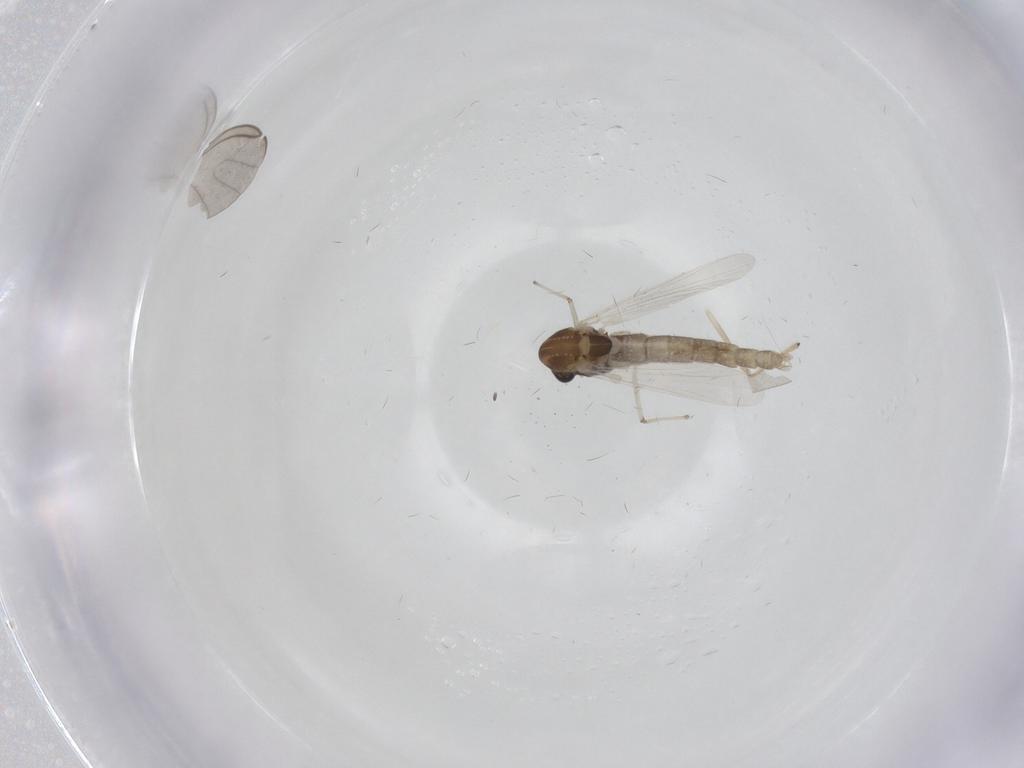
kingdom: Animalia
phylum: Arthropoda
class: Insecta
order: Diptera
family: Chironomidae
